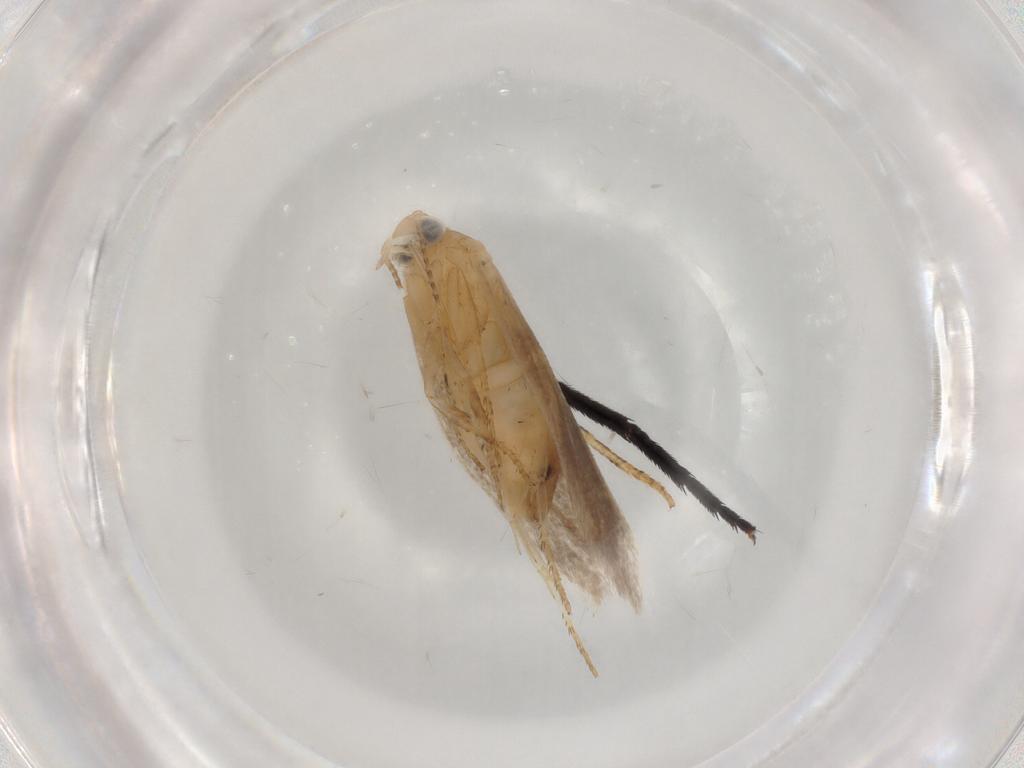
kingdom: Animalia
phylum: Arthropoda
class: Insecta
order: Lepidoptera
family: Plutellidae
